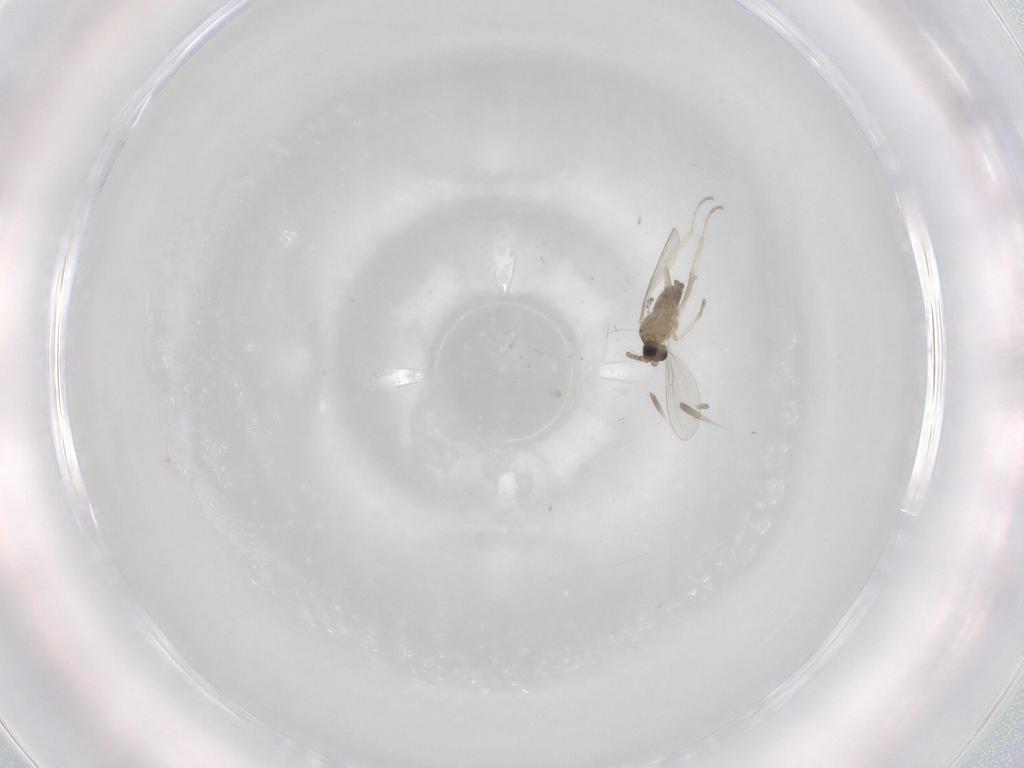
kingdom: Animalia
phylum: Arthropoda
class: Insecta
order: Diptera
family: Cecidomyiidae
